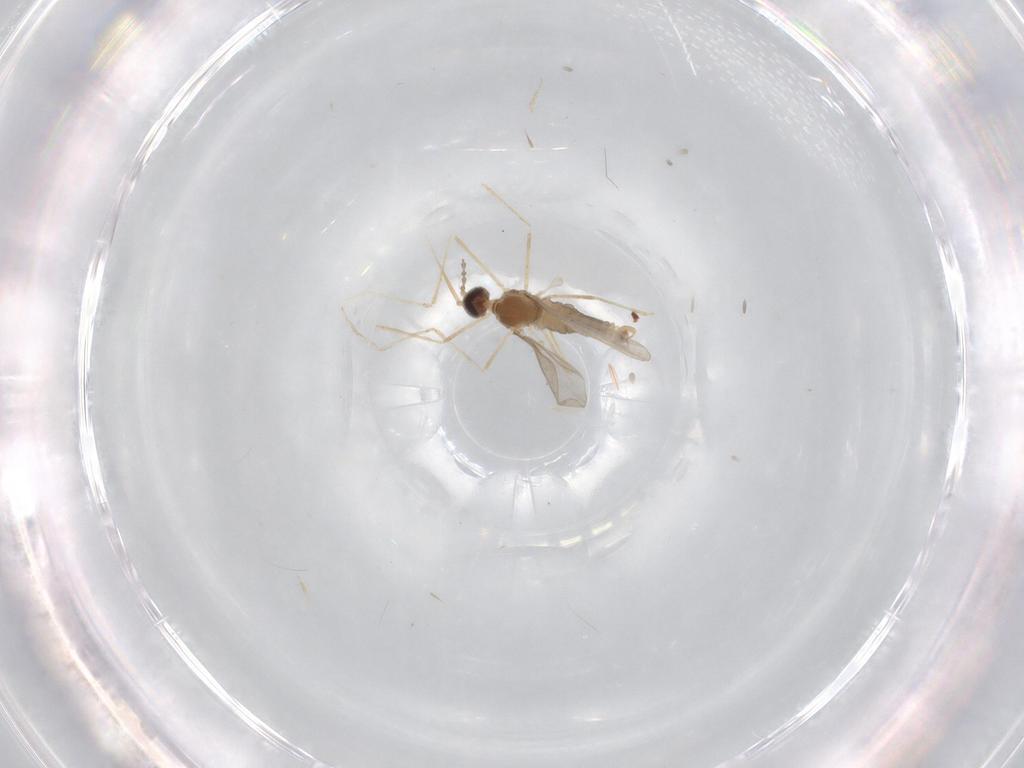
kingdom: Animalia
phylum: Arthropoda
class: Insecta
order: Diptera
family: Cecidomyiidae
